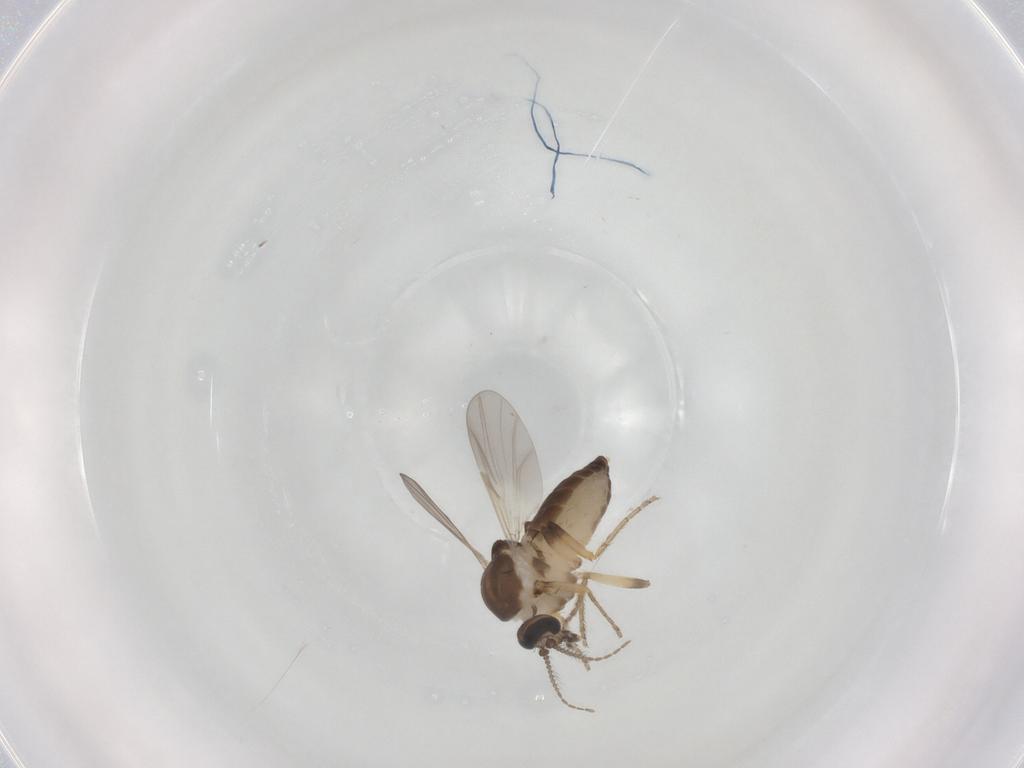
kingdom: Animalia
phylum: Arthropoda
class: Insecta
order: Diptera
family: Ceratopogonidae
